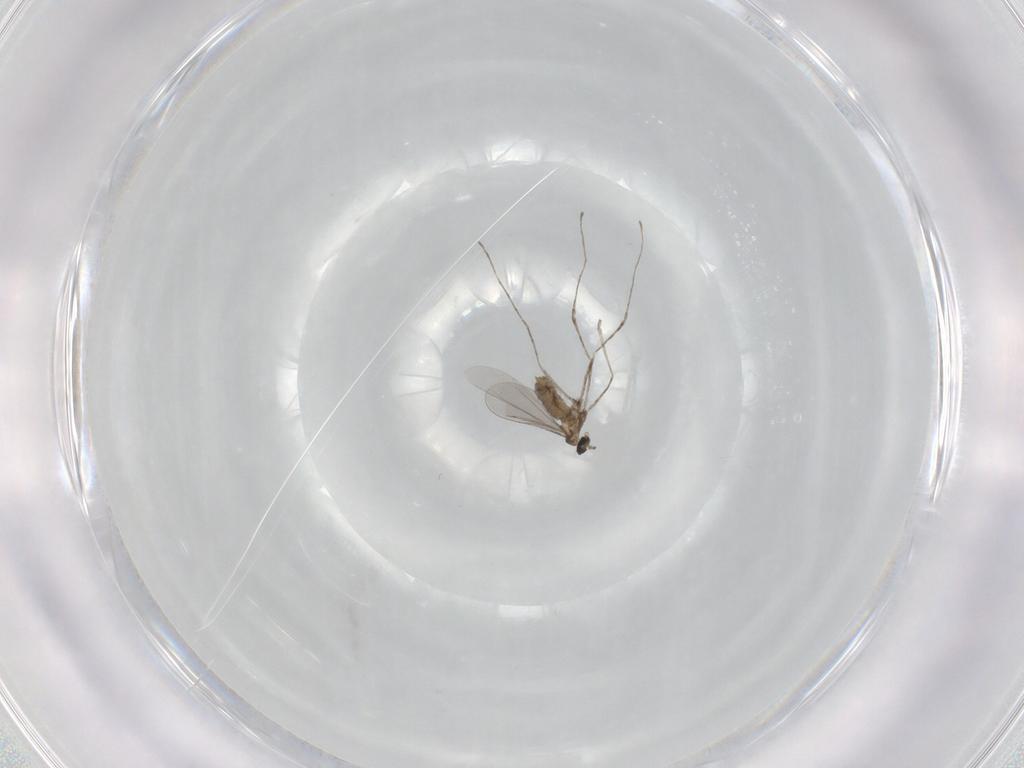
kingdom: Animalia
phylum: Arthropoda
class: Insecta
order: Diptera
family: Cecidomyiidae
